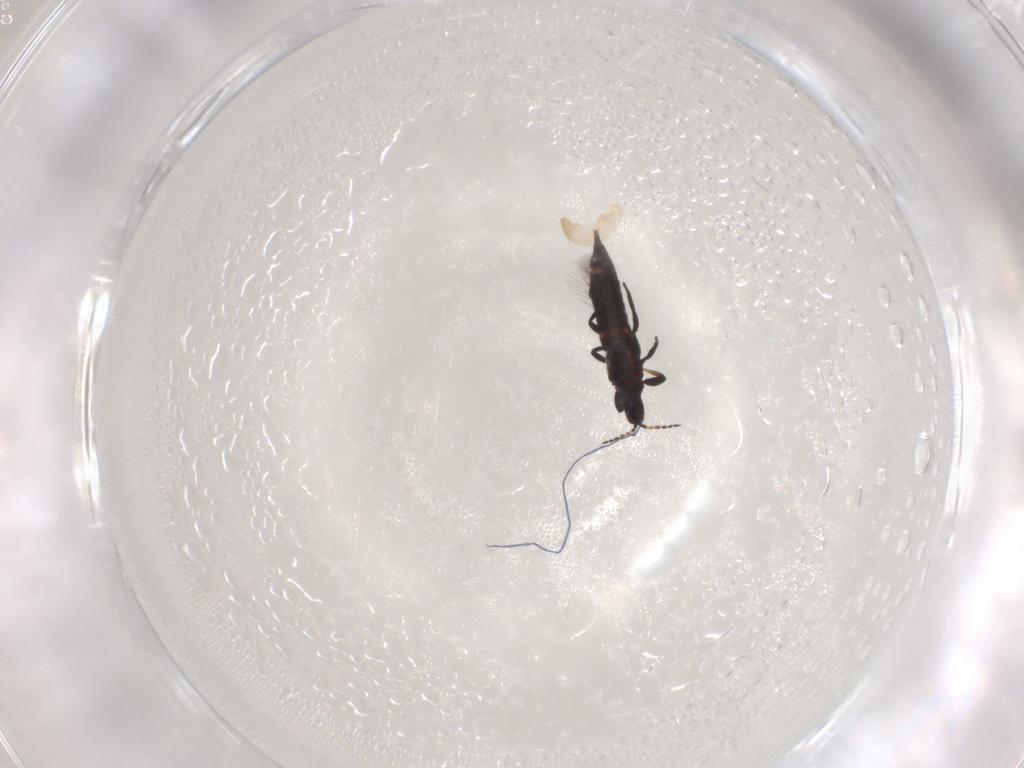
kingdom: Animalia
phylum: Arthropoda
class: Insecta
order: Thysanoptera
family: Phlaeothripidae
